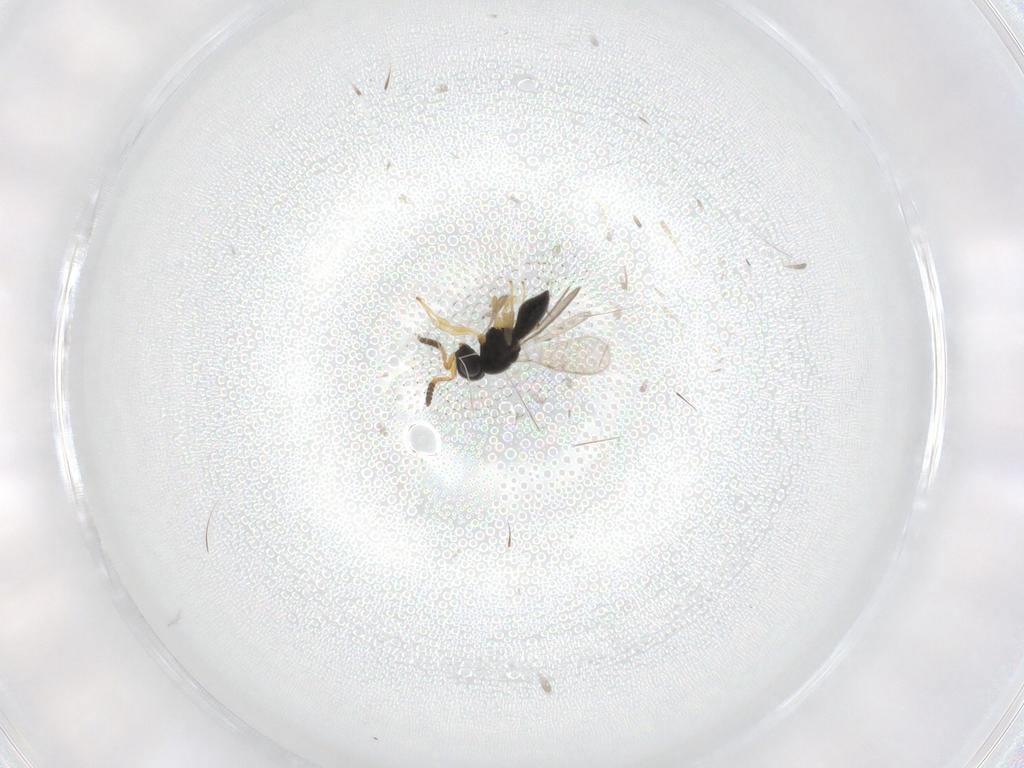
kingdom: Animalia
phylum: Arthropoda
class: Insecta
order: Hymenoptera
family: Scelionidae
